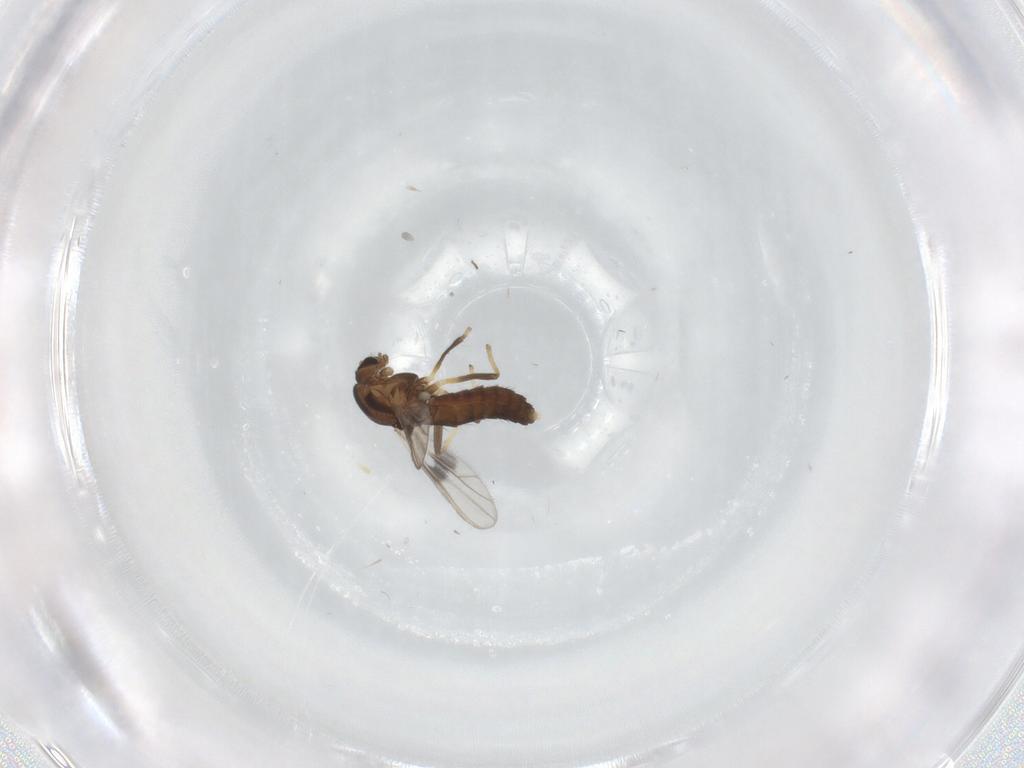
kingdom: Animalia
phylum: Arthropoda
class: Insecta
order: Diptera
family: Chironomidae
